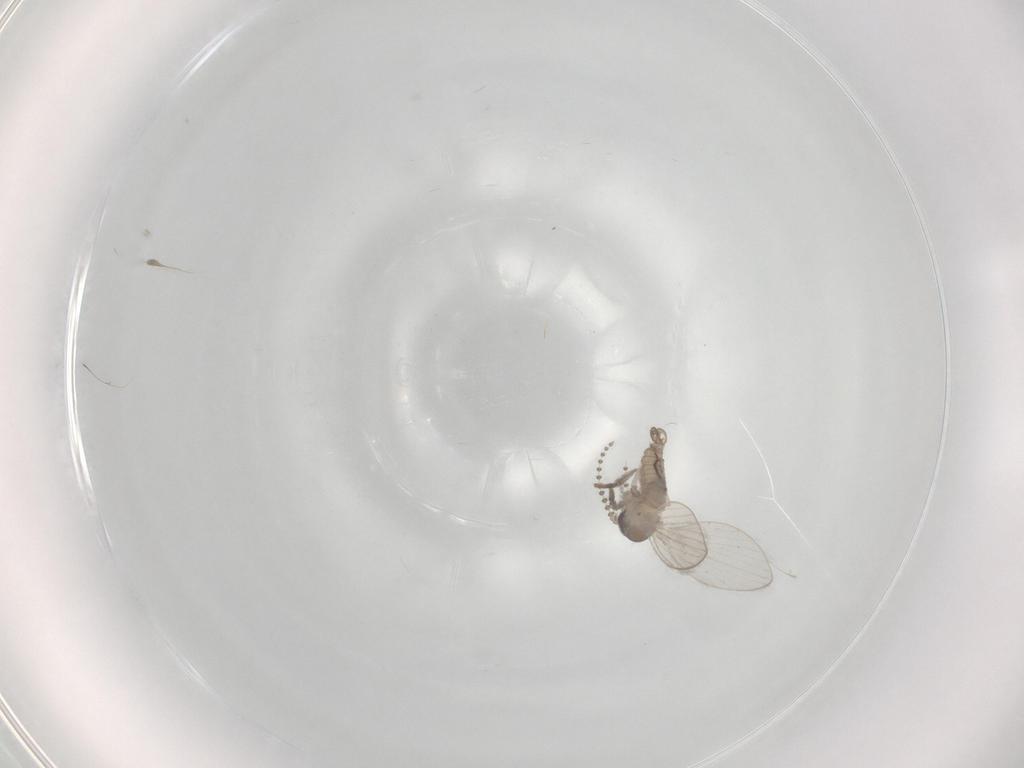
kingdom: Animalia
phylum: Arthropoda
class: Insecta
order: Diptera
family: Psychodidae
